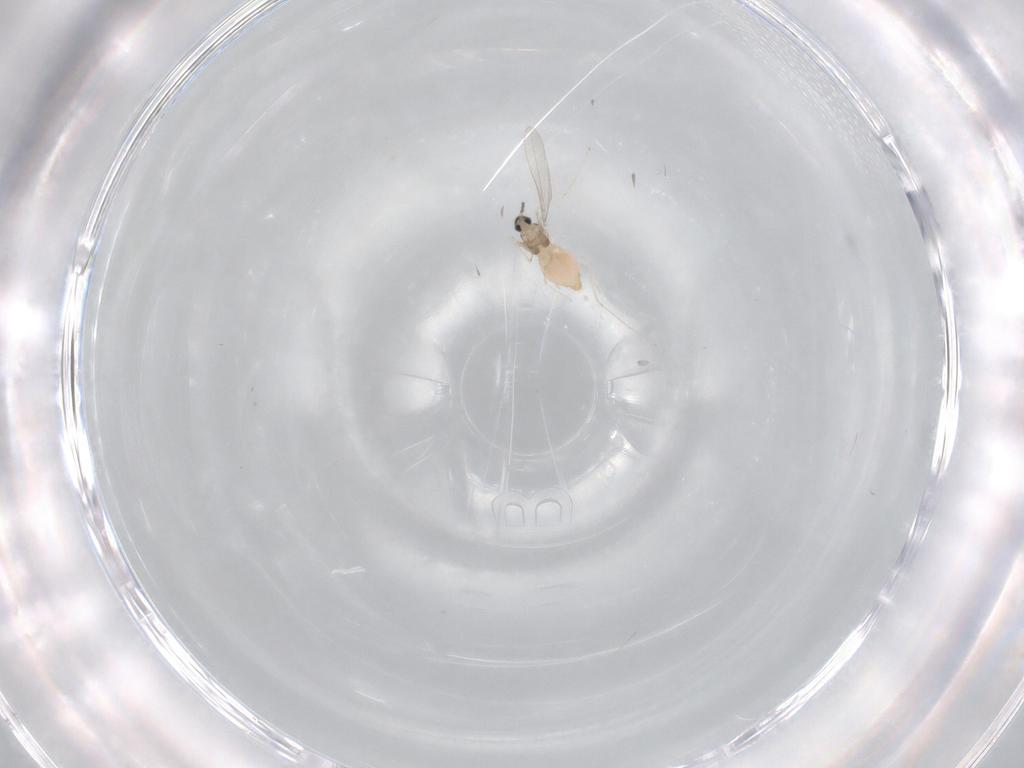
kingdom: Animalia
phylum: Arthropoda
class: Insecta
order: Diptera
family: Cecidomyiidae
